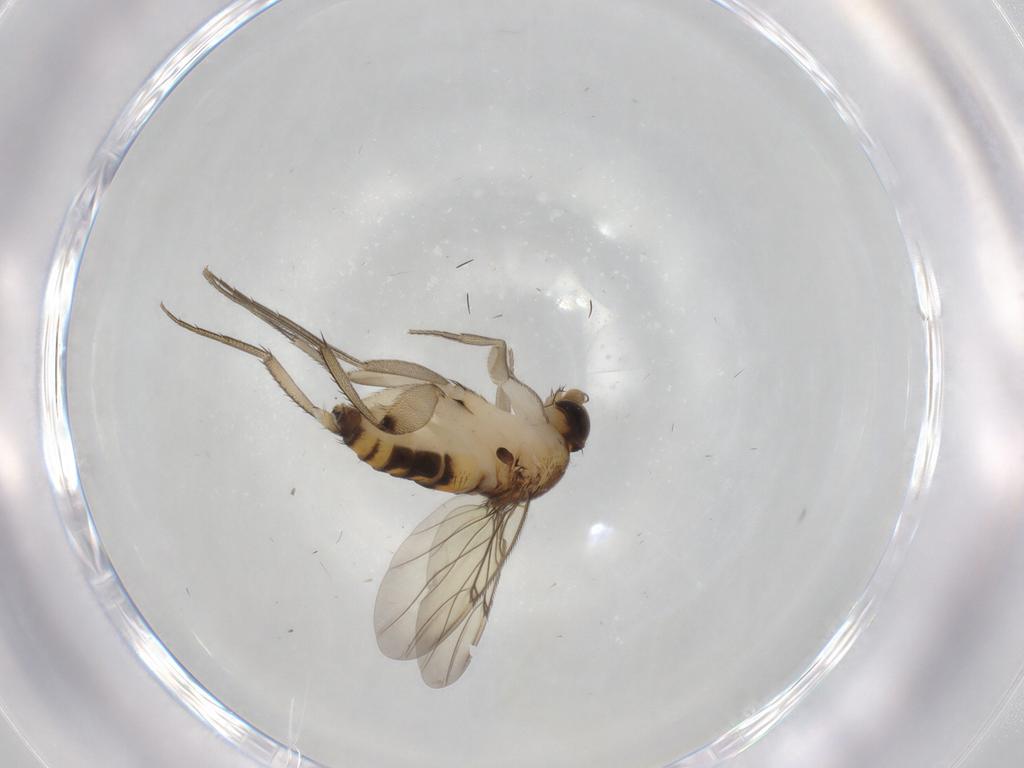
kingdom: Animalia
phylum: Arthropoda
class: Insecta
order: Diptera
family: Phoridae
